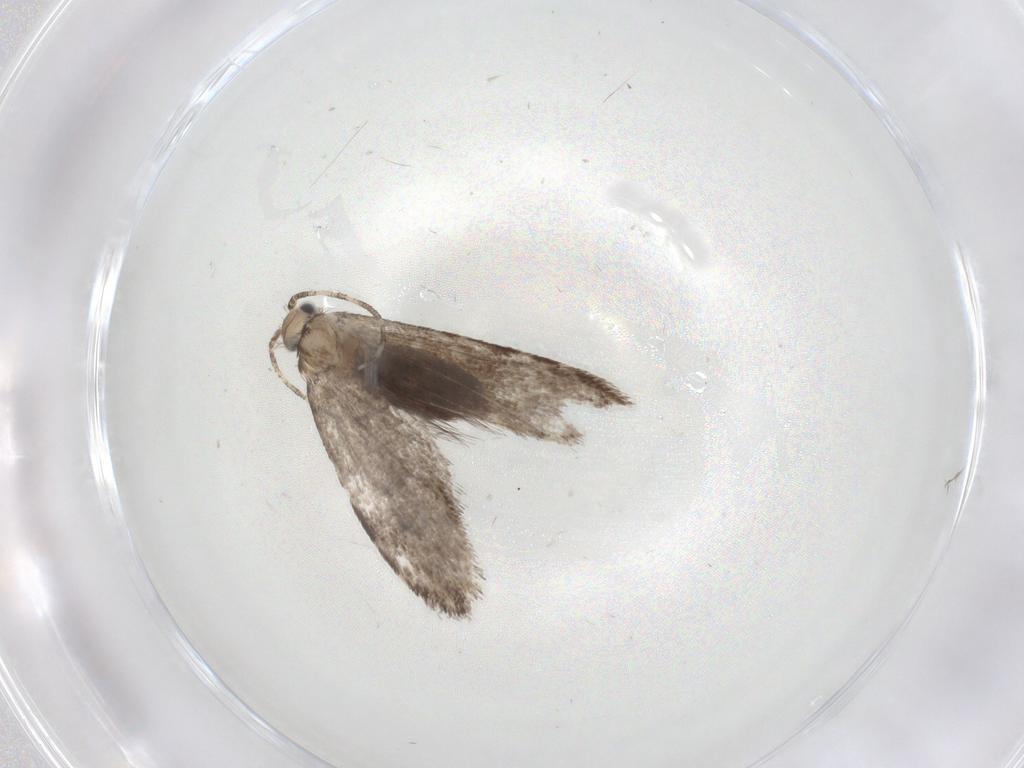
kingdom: Animalia
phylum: Arthropoda
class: Insecta
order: Lepidoptera
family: Tineidae
